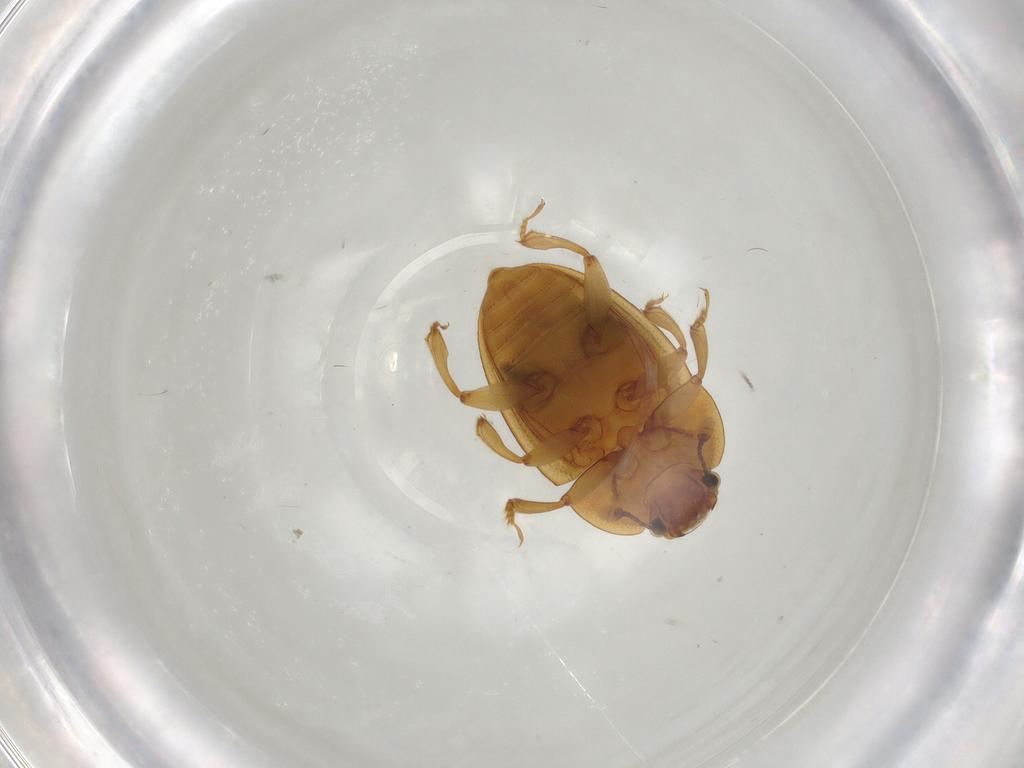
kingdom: Animalia
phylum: Arthropoda
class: Insecta
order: Coleoptera
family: Nitidulidae
